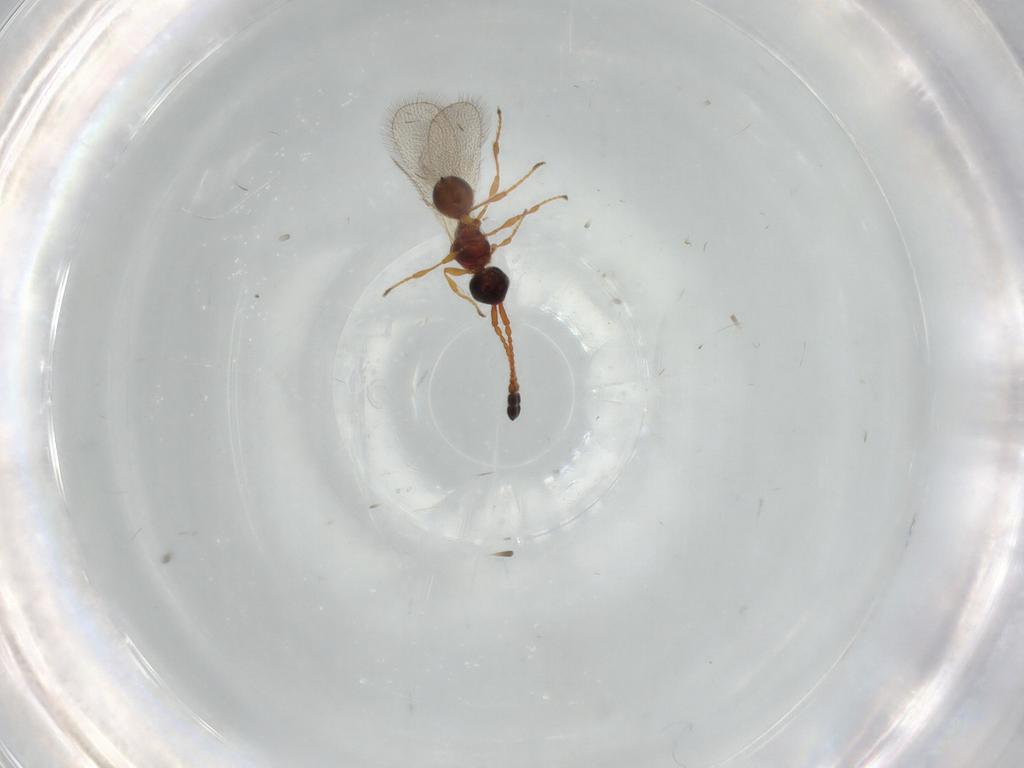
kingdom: Animalia
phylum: Arthropoda
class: Insecta
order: Hymenoptera
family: Diapriidae
